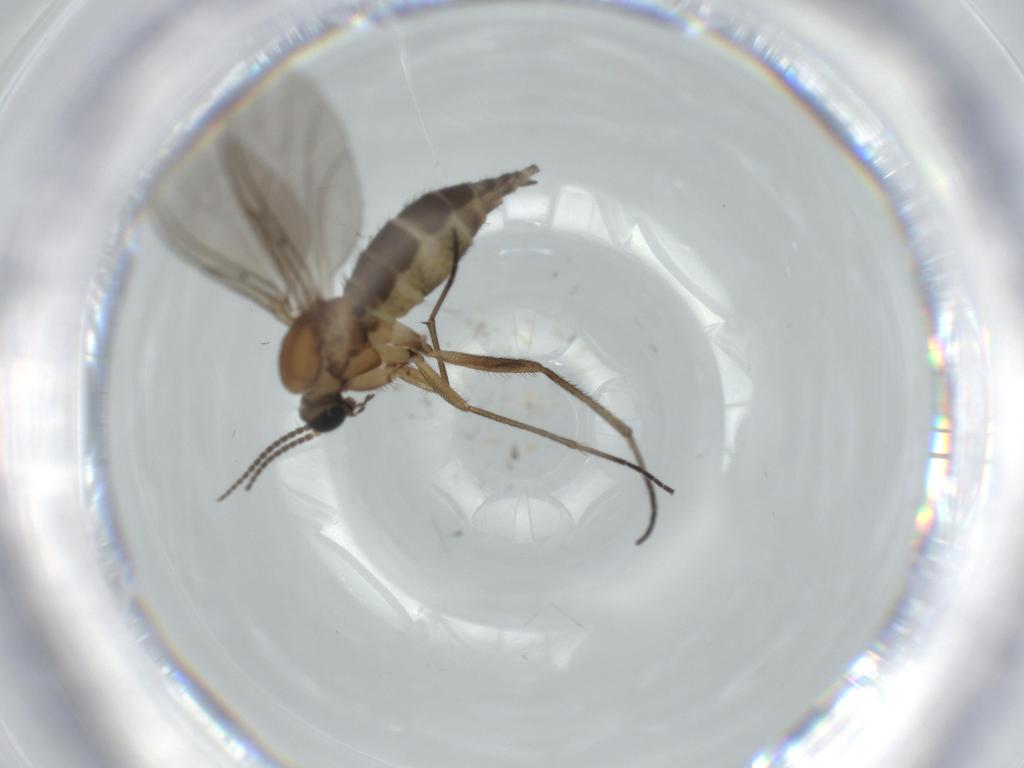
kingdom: Animalia
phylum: Arthropoda
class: Insecta
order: Diptera
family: Sciaridae
